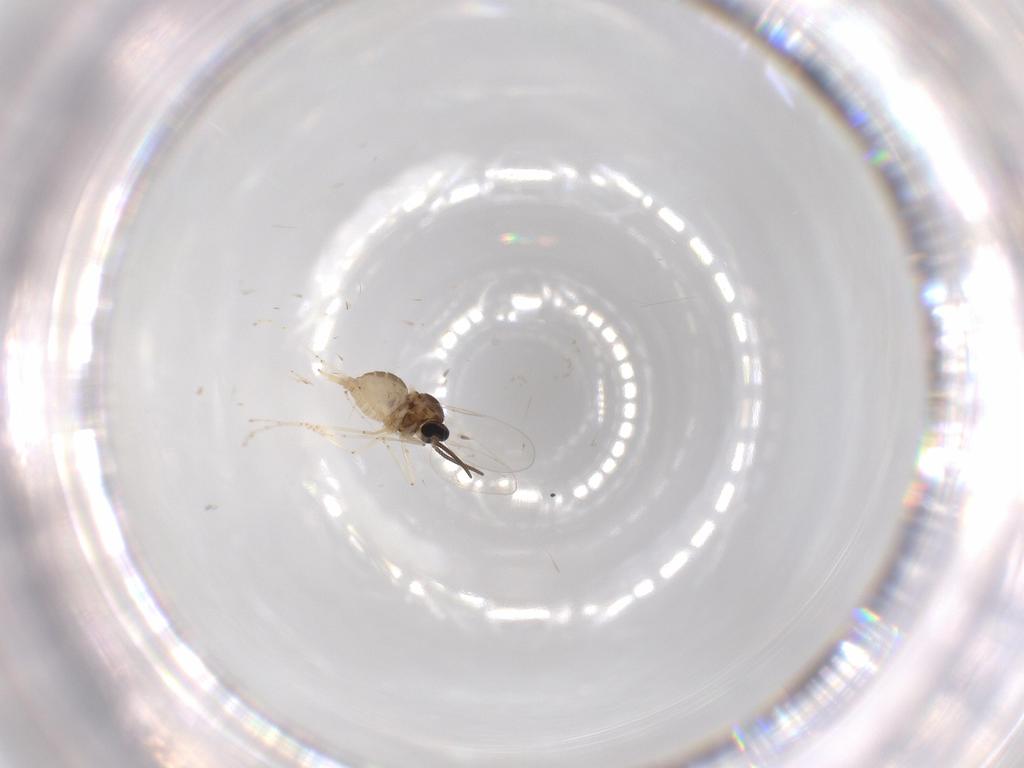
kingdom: Animalia
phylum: Arthropoda
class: Insecta
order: Diptera
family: Cecidomyiidae
